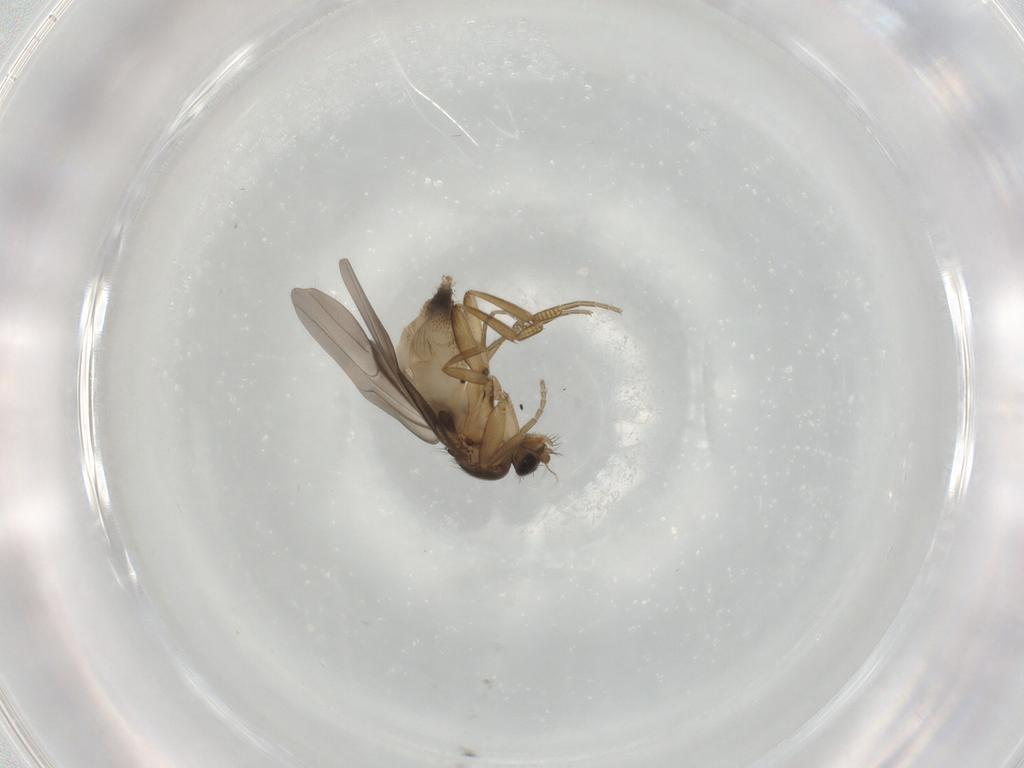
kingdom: Animalia
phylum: Arthropoda
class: Insecta
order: Diptera
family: Phoridae
